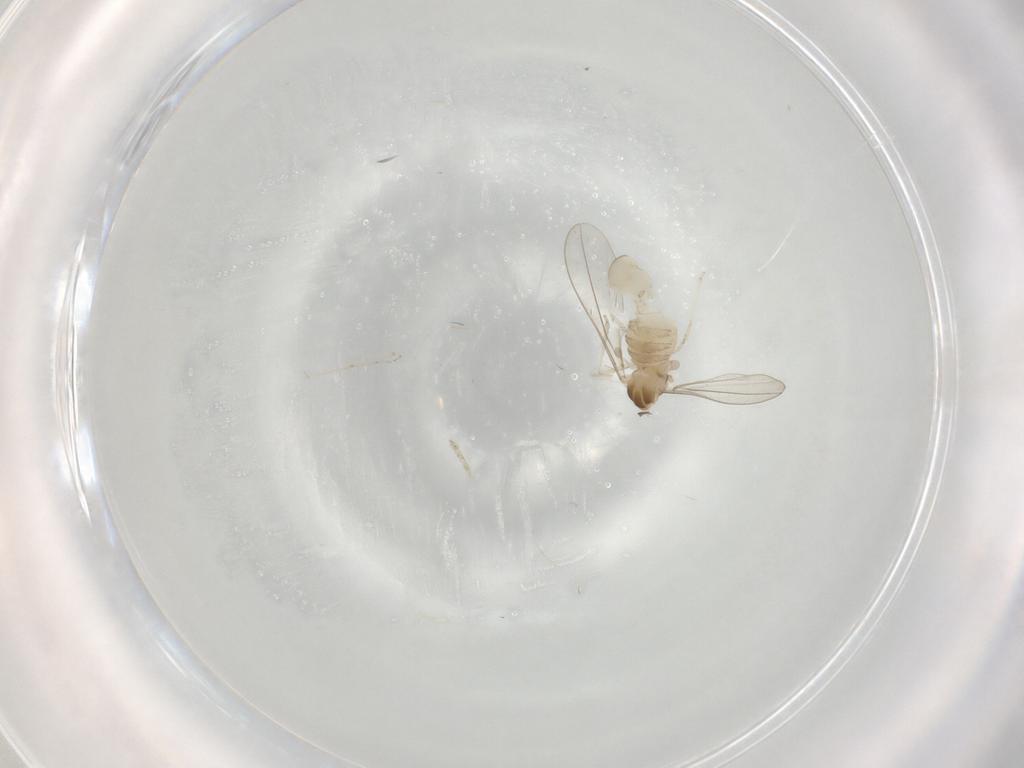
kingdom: Animalia
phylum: Arthropoda
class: Insecta
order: Diptera
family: Cecidomyiidae
